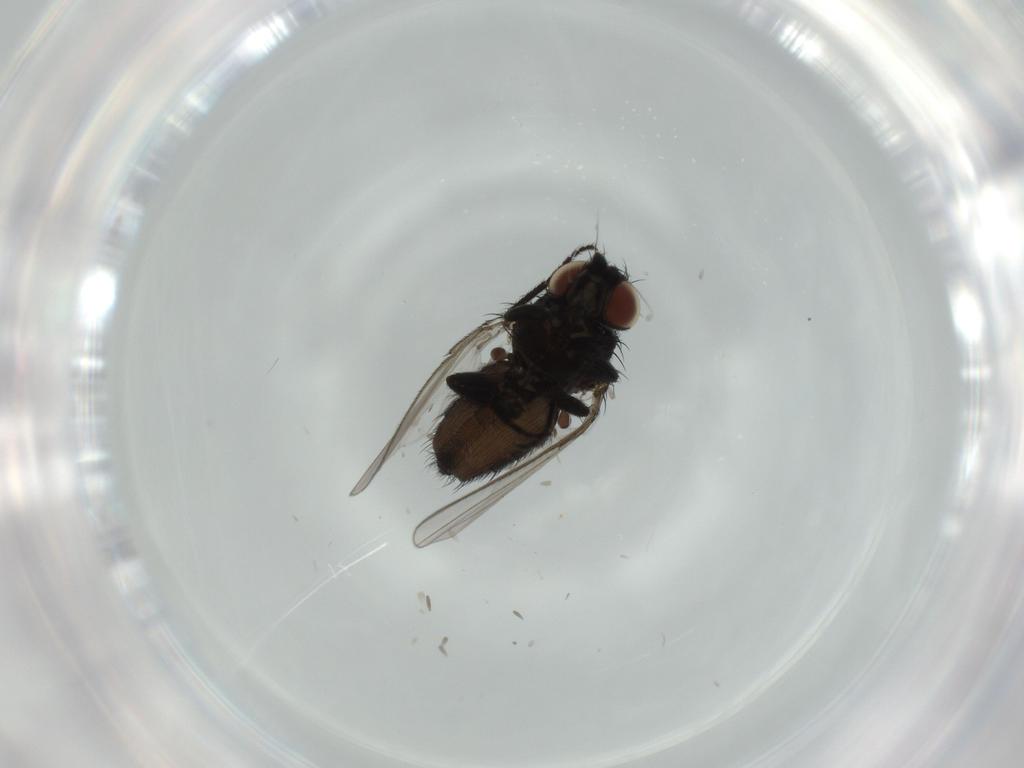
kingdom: Animalia
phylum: Arthropoda
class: Insecta
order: Diptera
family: Milichiidae
